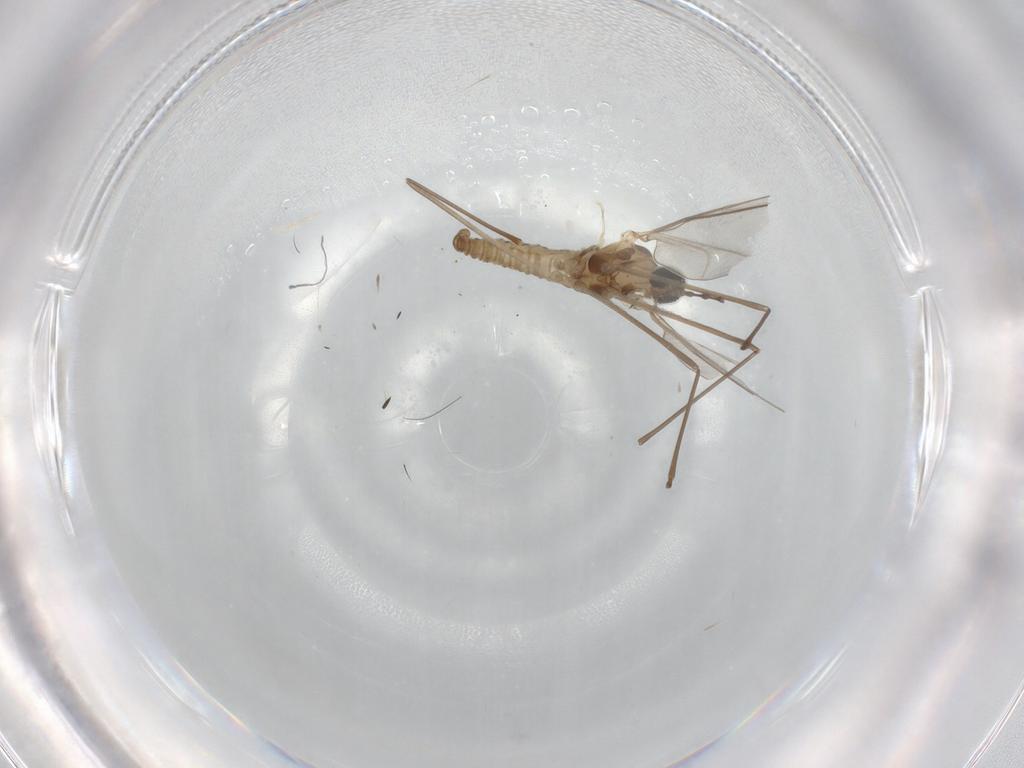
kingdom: Animalia
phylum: Arthropoda
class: Insecta
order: Diptera
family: Cecidomyiidae
